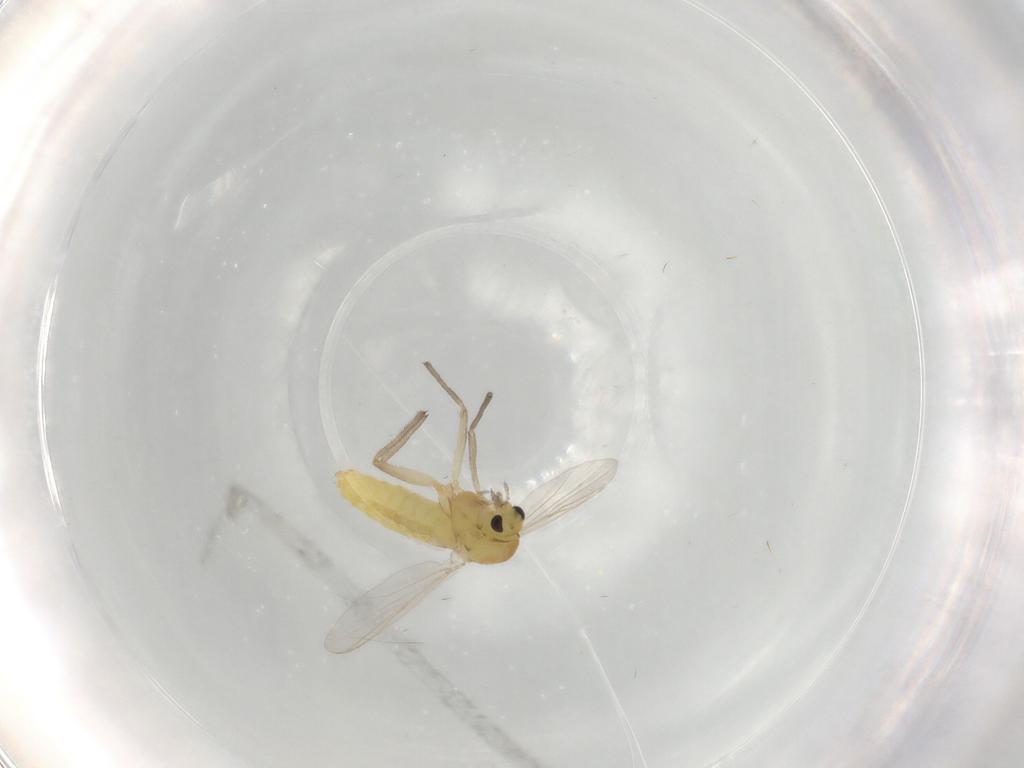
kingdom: Animalia
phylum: Arthropoda
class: Insecta
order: Diptera
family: Chironomidae
